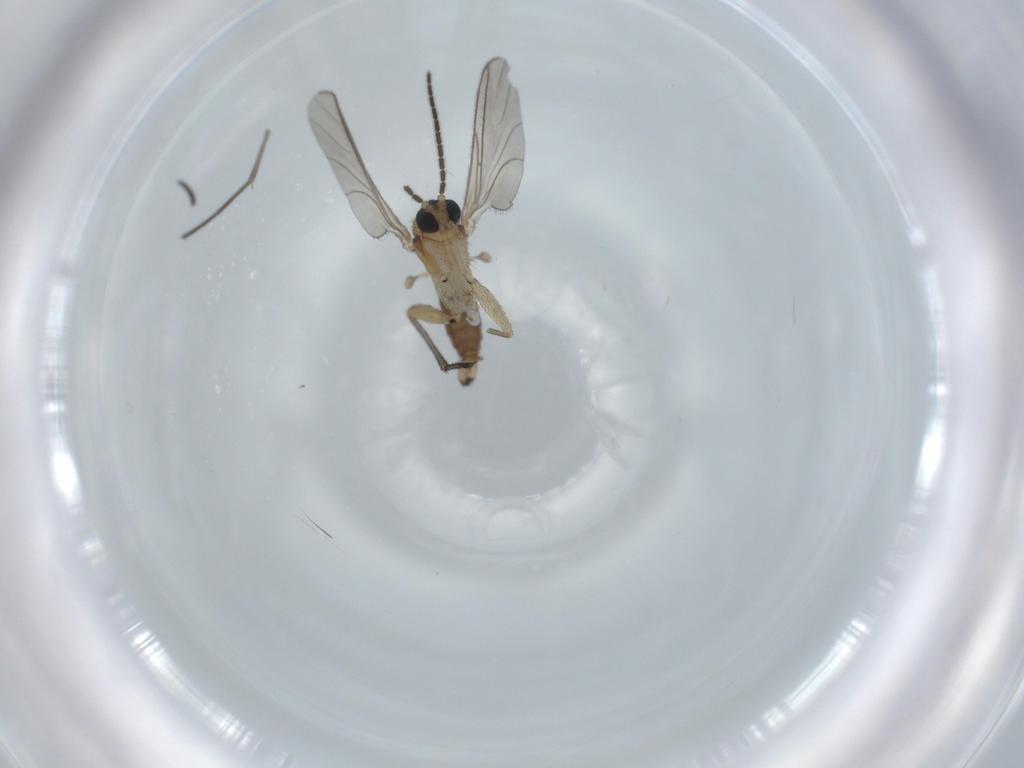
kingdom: Animalia
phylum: Arthropoda
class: Insecta
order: Diptera
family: Sciaridae
